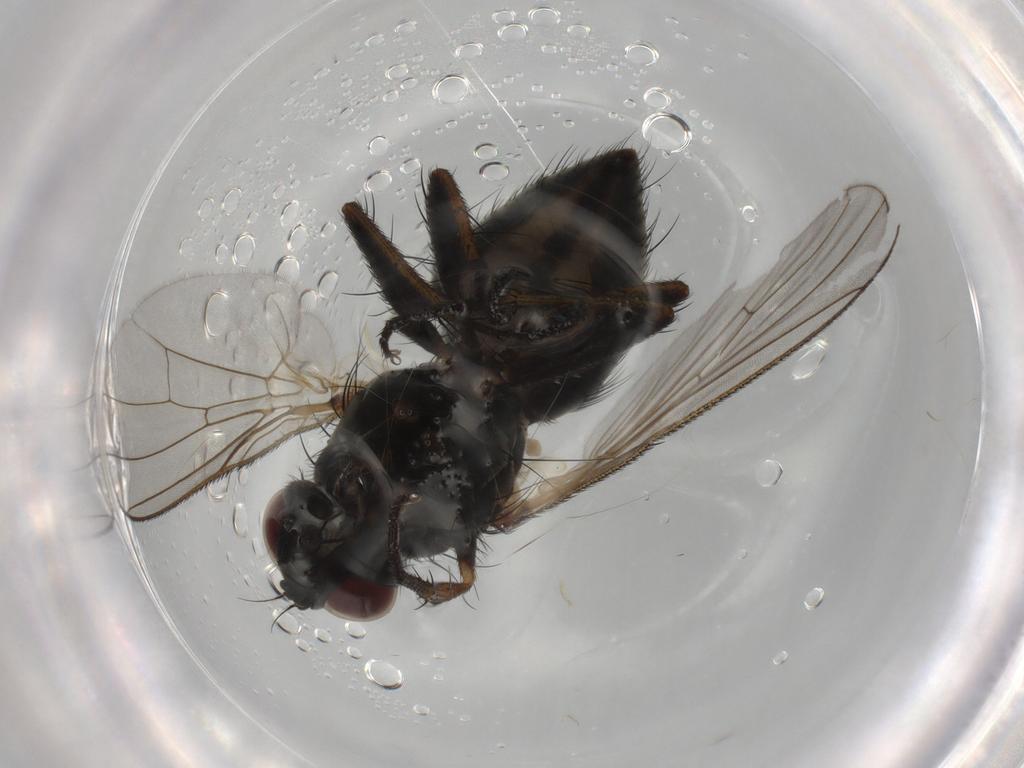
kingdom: Animalia
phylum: Arthropoda
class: Insecta
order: Diptera
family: Muscidae
